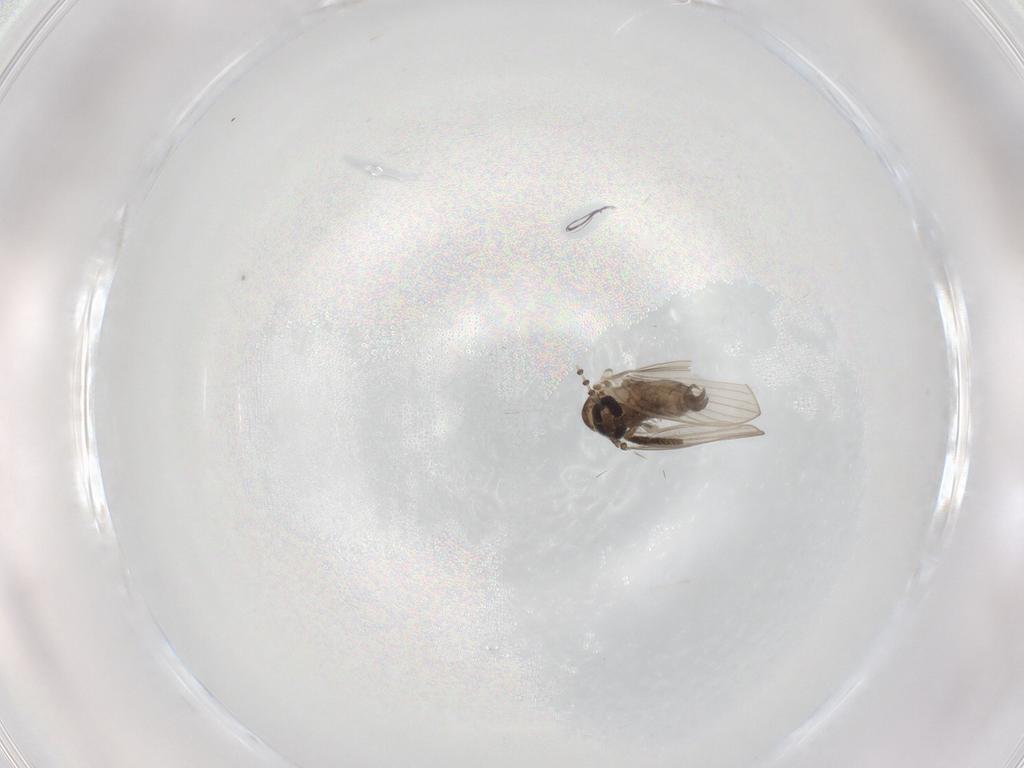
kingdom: Animalia
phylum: Arthropoda
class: Insecta
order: Diptera
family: Psychodidae
